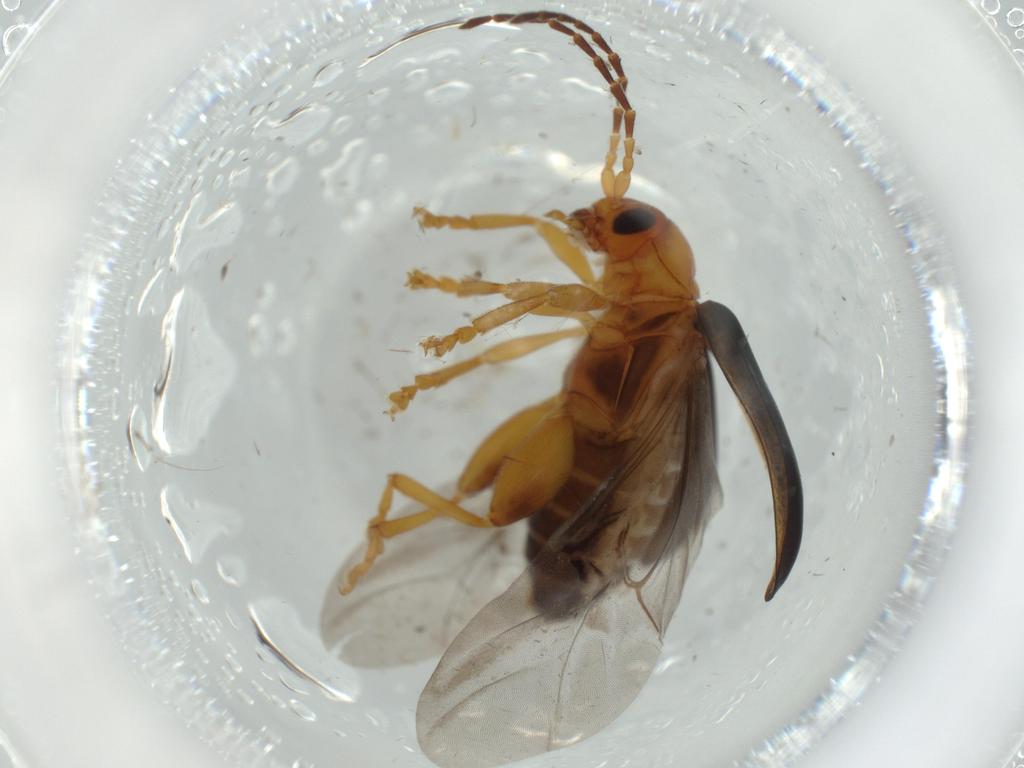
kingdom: Animalia
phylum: Arthropoda
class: Insecta
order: Coleoptera
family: Chrysomelidae
